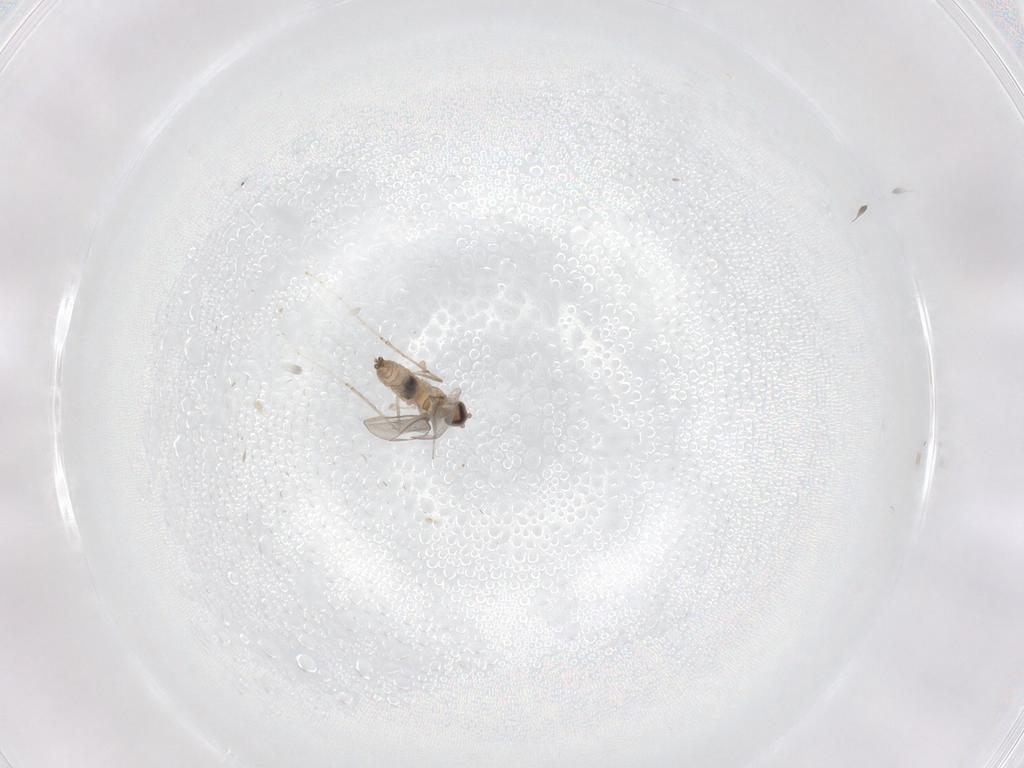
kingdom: Animalia
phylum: Arthropoda
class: Insecta
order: Diptera
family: Cecidomyiidae
